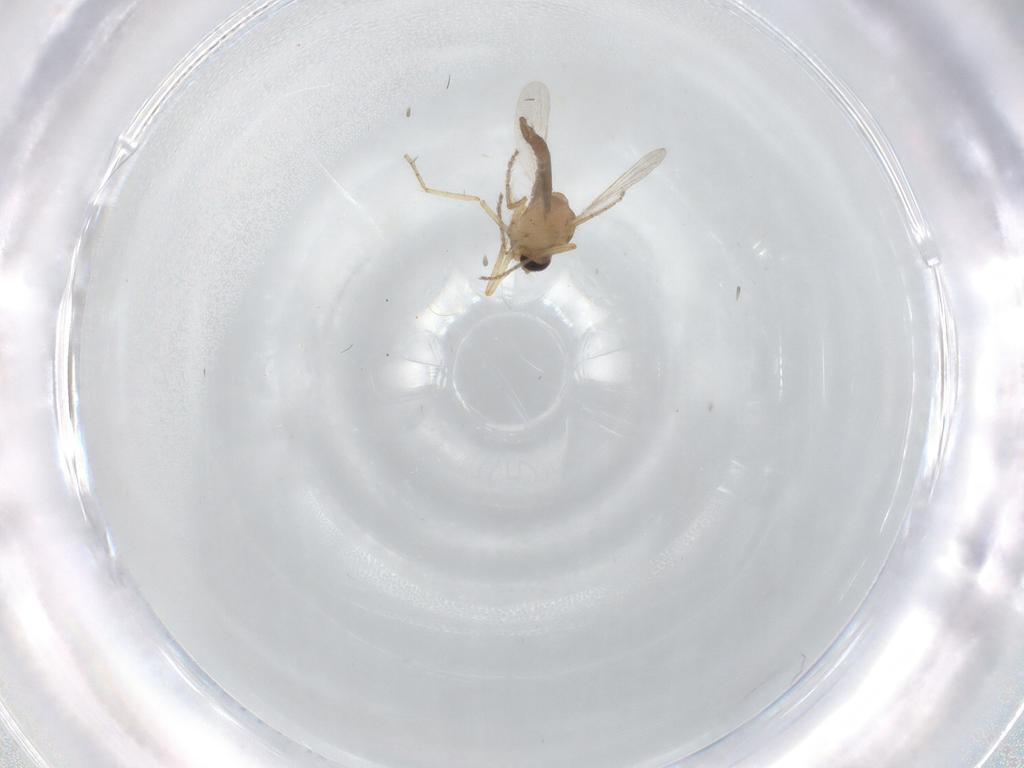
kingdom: Animalia
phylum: Arthropoda
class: Insecta
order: Diptera
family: Ceratopogonidae
